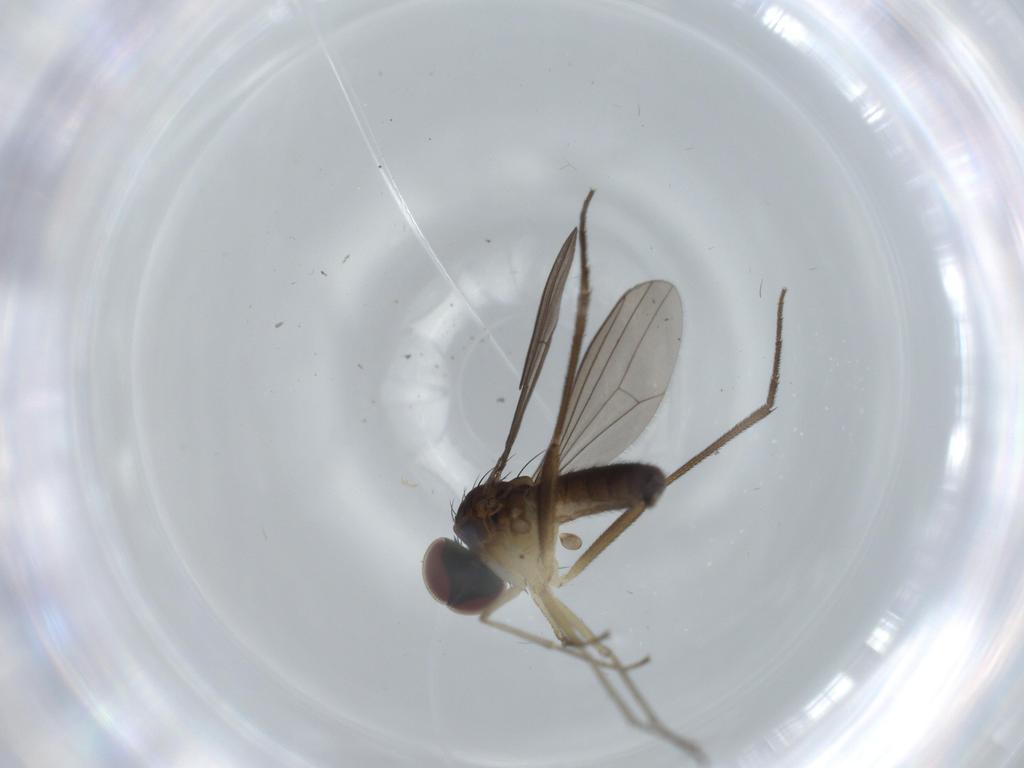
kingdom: Animalia
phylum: Arthropoda
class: Insecta
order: Diptera
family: Dolichopodidae
